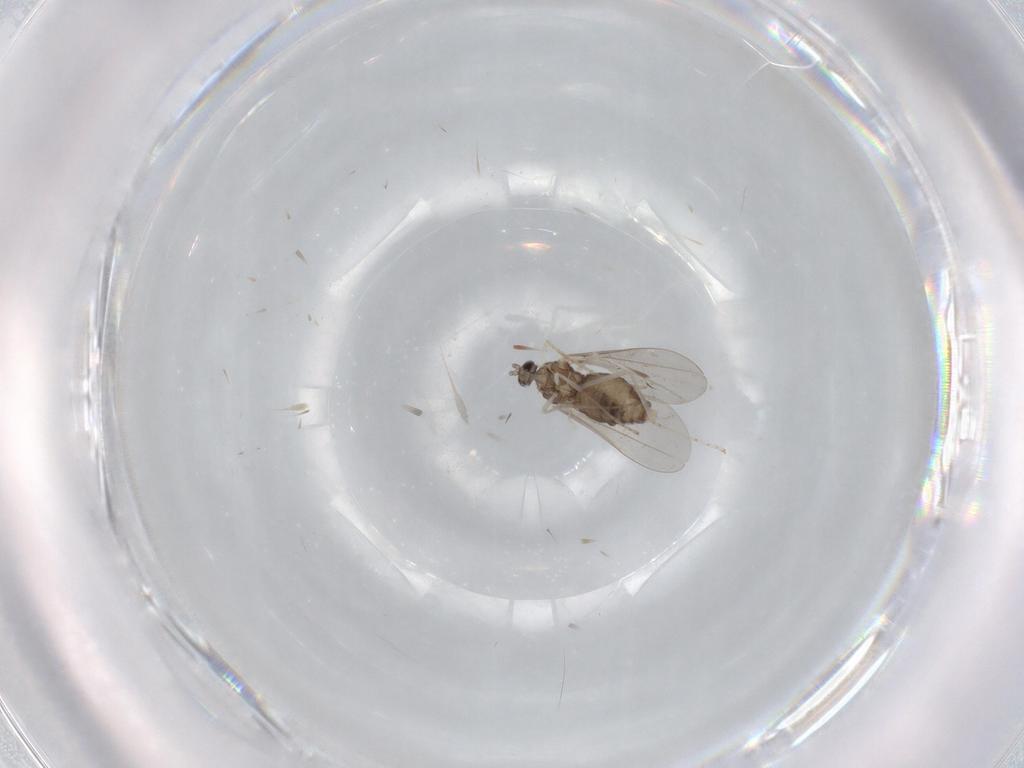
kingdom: Animalia
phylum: Arthropoda
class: Insecta
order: Diptera
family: Cecidomyiidae
